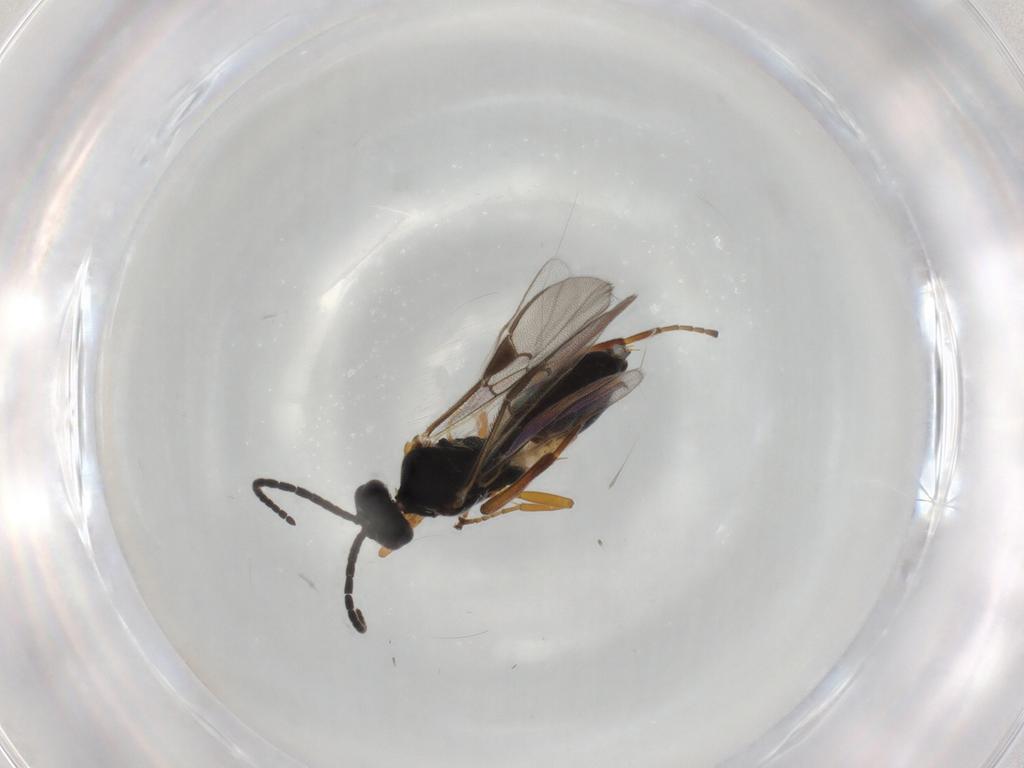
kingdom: Animalia
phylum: Arthropoda
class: Insecta
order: Hymenoptera
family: Braconidae
